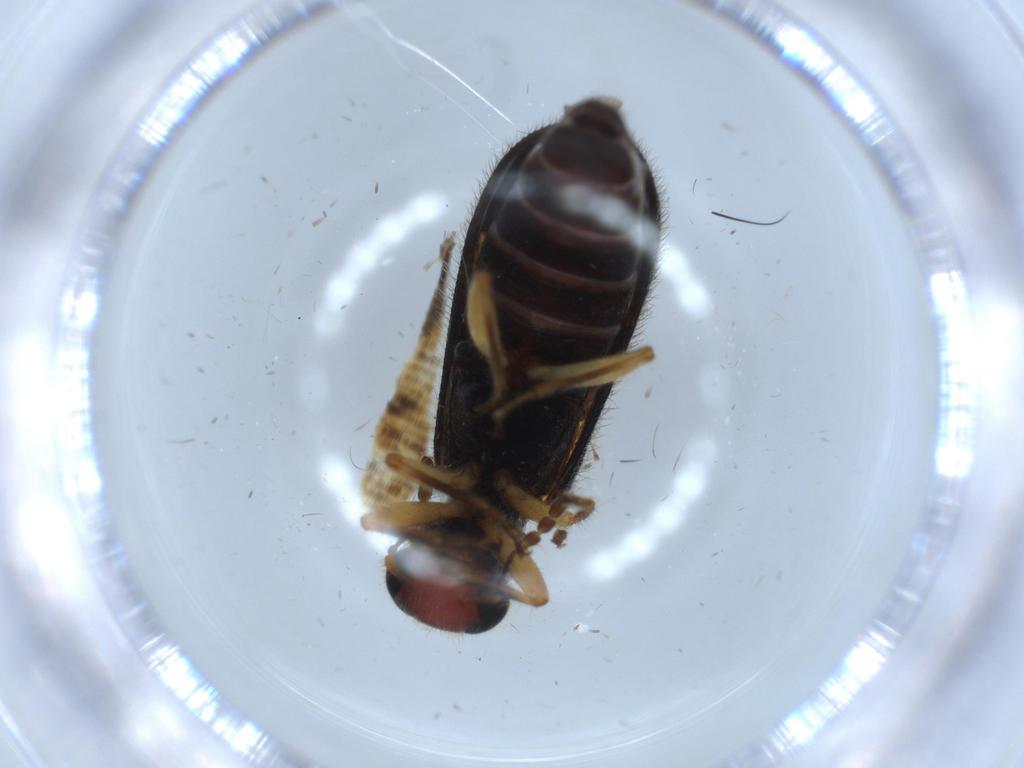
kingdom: Animalia
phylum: Arthropoda
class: Insecta
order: Coleoptera
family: Cleridae
